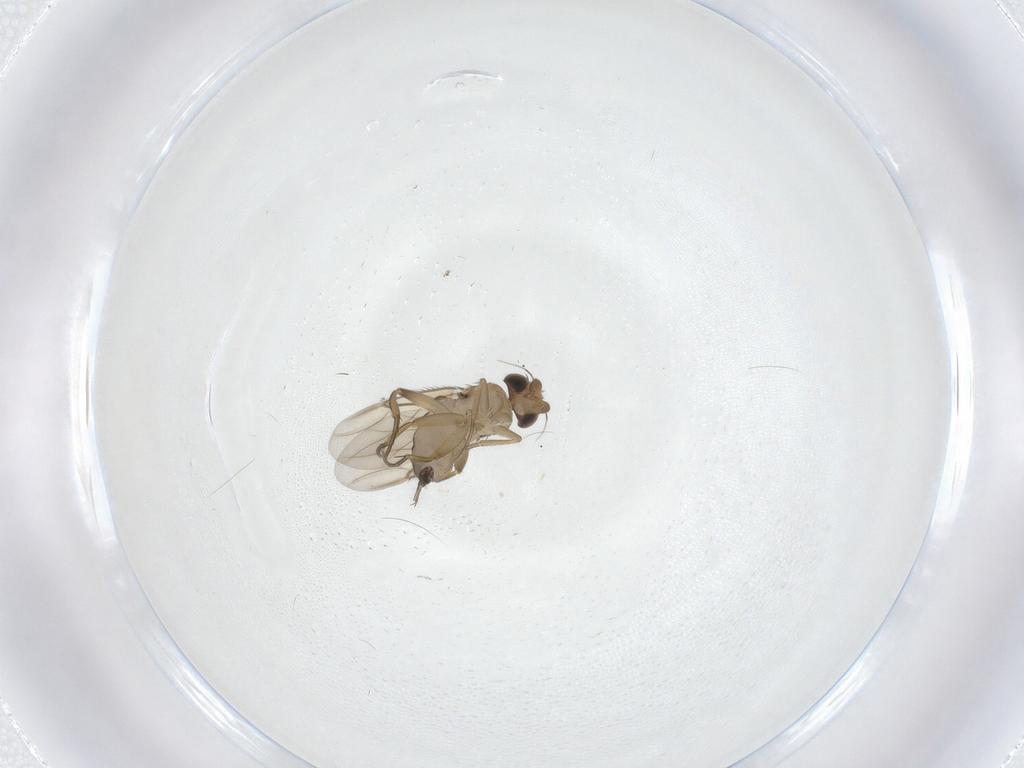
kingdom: Animalia
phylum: Arthropoda
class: Insecta
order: Diptera
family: Phoridae
